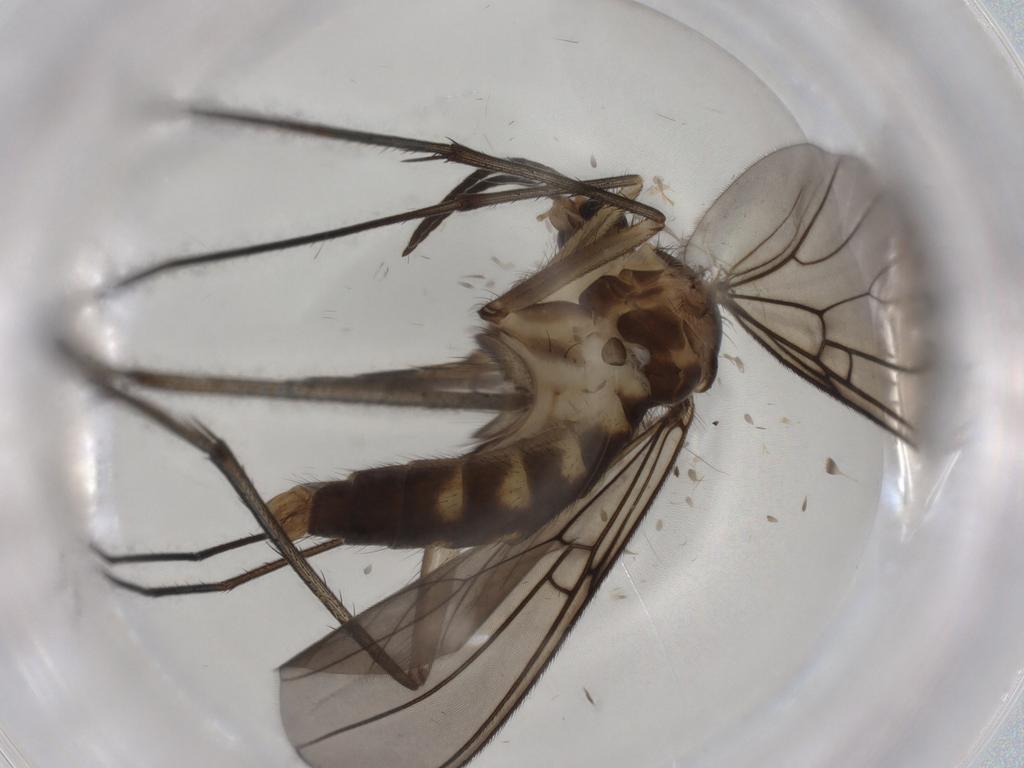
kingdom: Animalia
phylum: Arthropoda
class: Insecta
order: Diptera
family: Mycetophilidae
